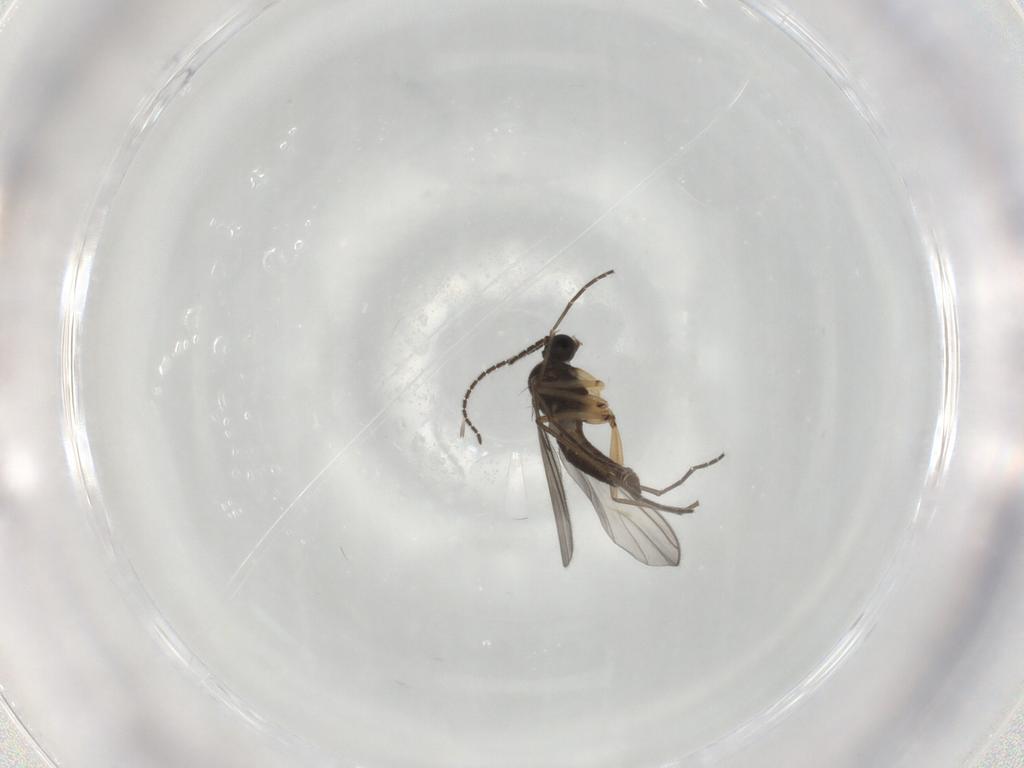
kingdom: Animalia
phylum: Arthropoda
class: Insecta
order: Diptera
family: Sciaridae
